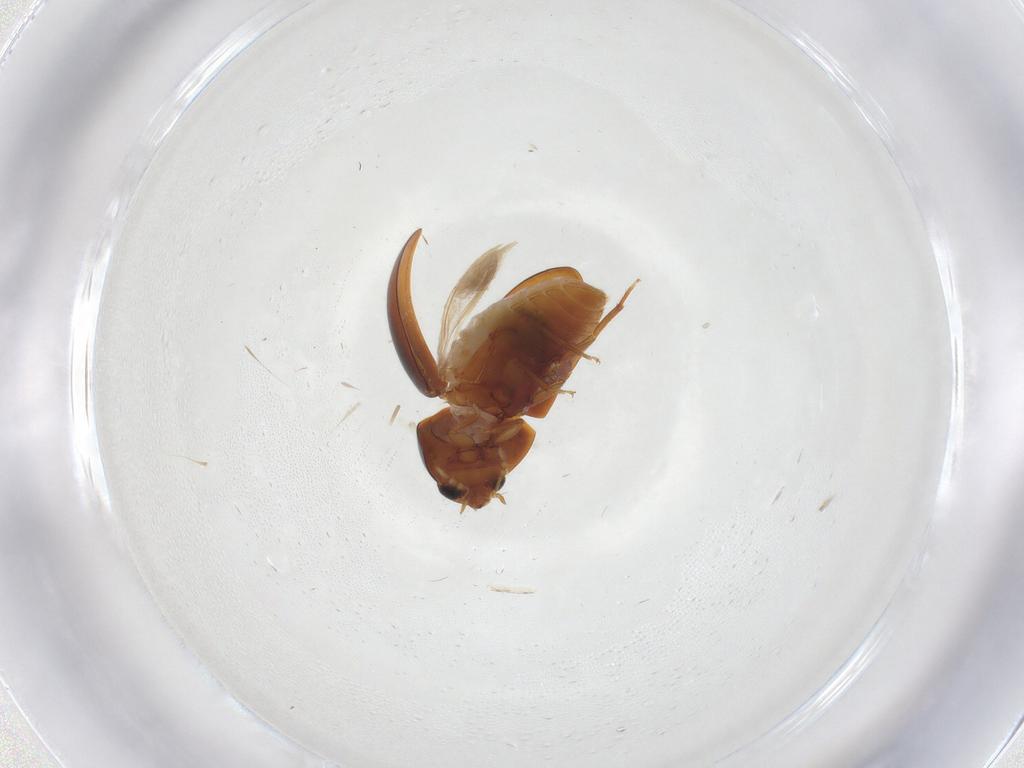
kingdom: Animalia
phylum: Arthropoda
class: Insecta
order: Coleoptera
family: Phalacridae
